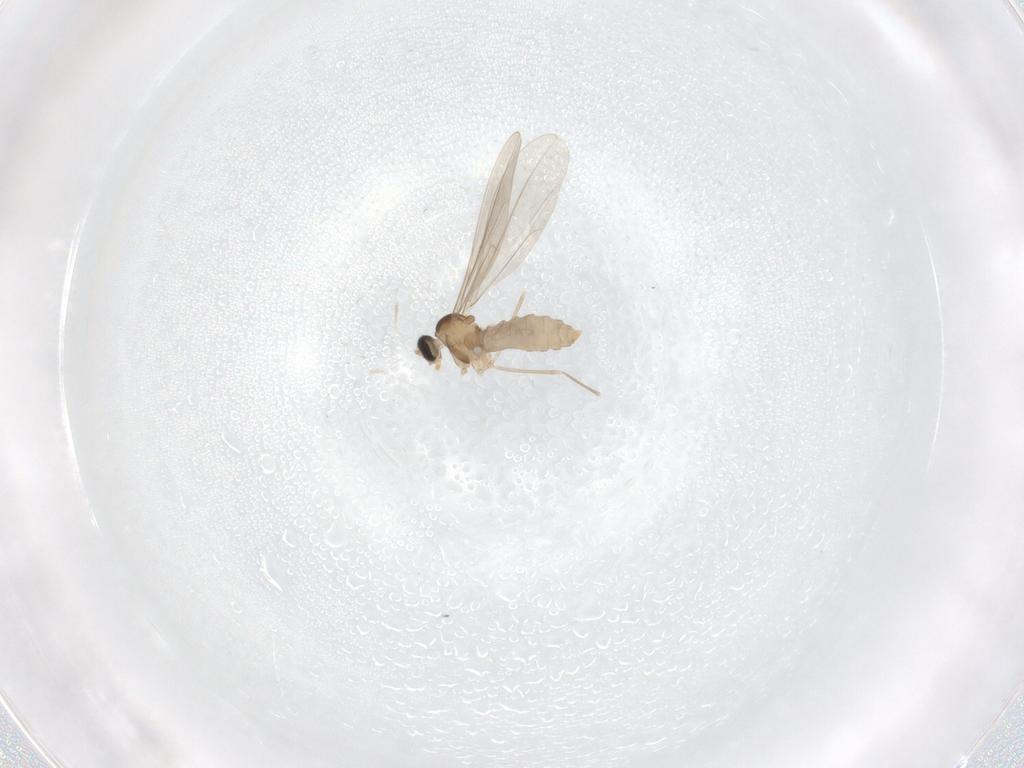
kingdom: Animalia
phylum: Arthropoda
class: Insecta
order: Diptera
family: Cecidomyiidae
